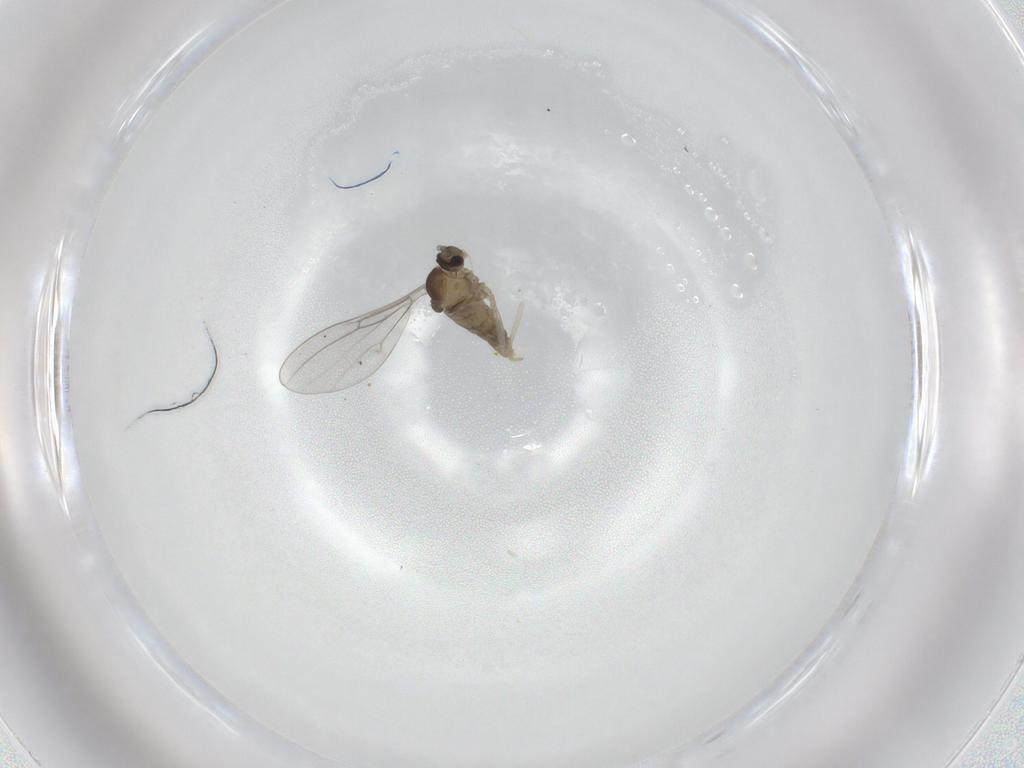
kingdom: Animalia
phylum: Arthropoda
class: Insecta
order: Diptera
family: Cecidomyiidae
